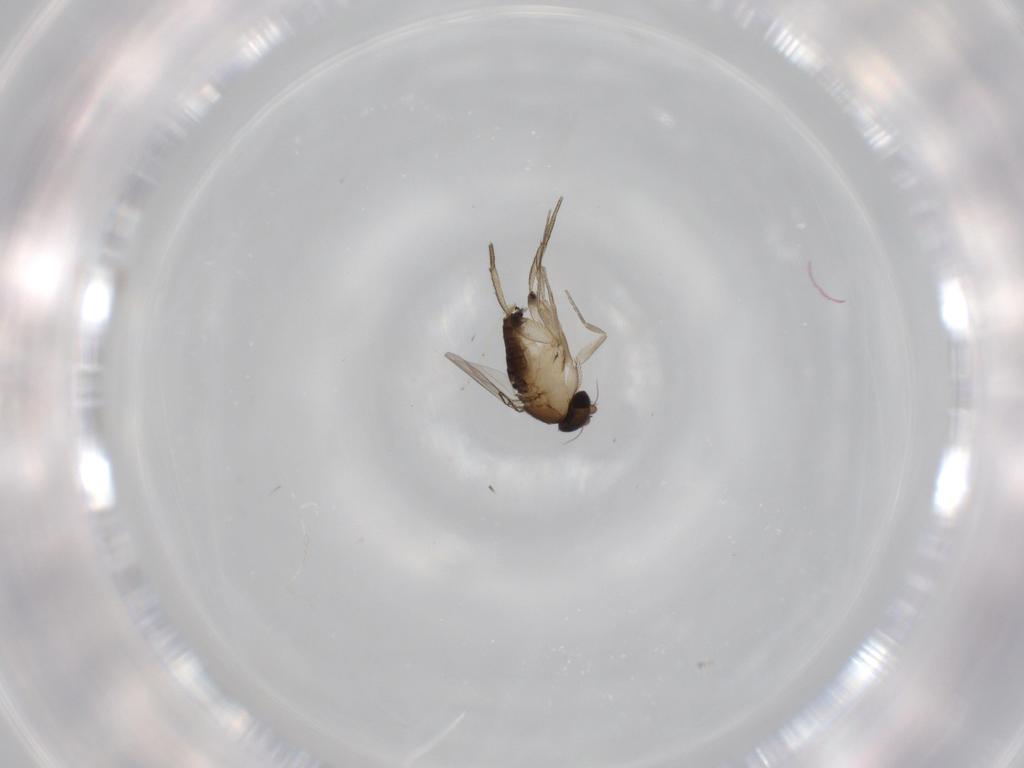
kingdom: Animalia
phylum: Arthropoda
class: Insecta
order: Diptera
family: Phoridae
